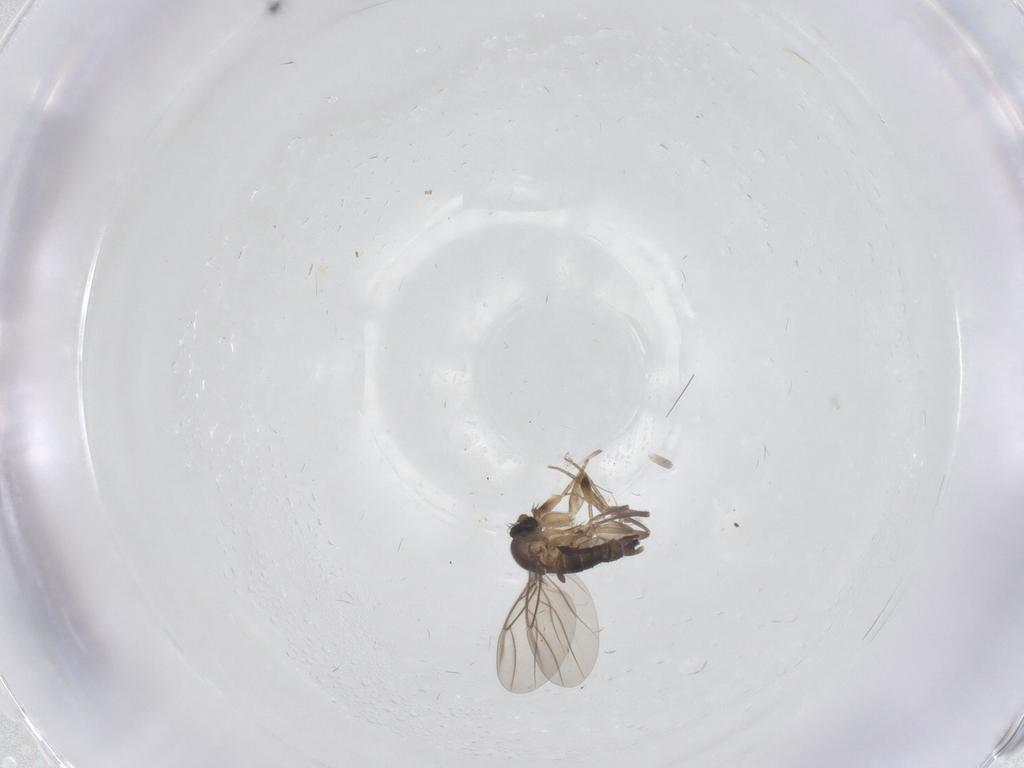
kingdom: Animalia
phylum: Arthropoda
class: Insecta
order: Diptera
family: Phoridae
